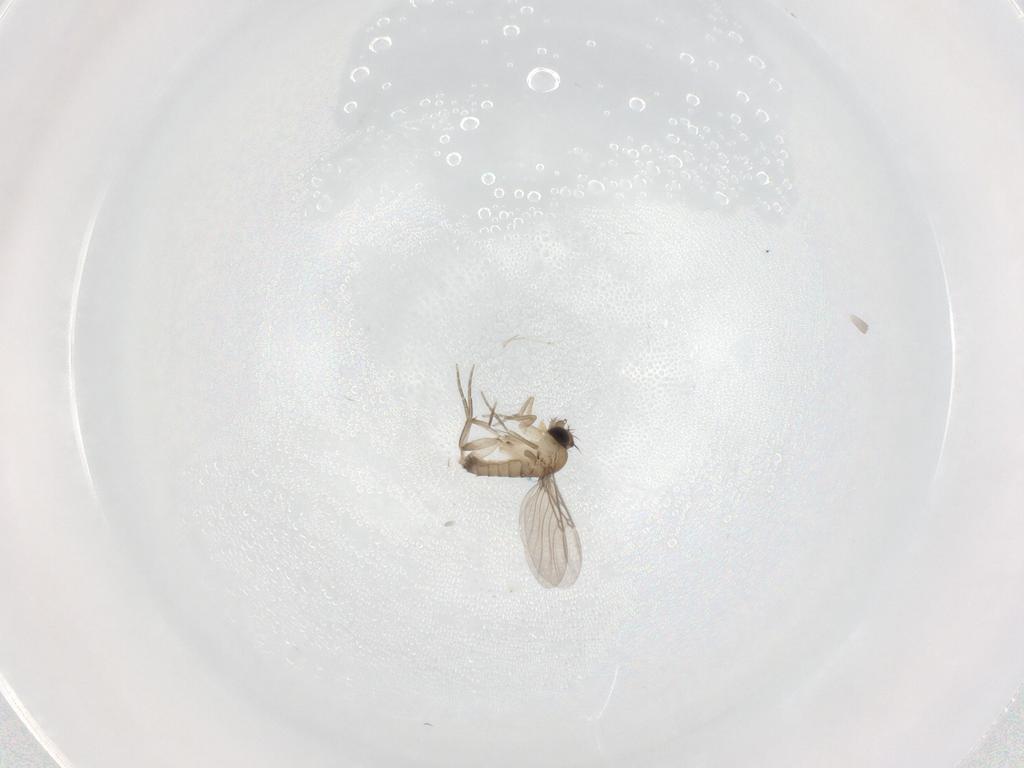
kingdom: Animalia
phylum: Arthropoda
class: Insecta
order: Diptera
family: Phoridae
